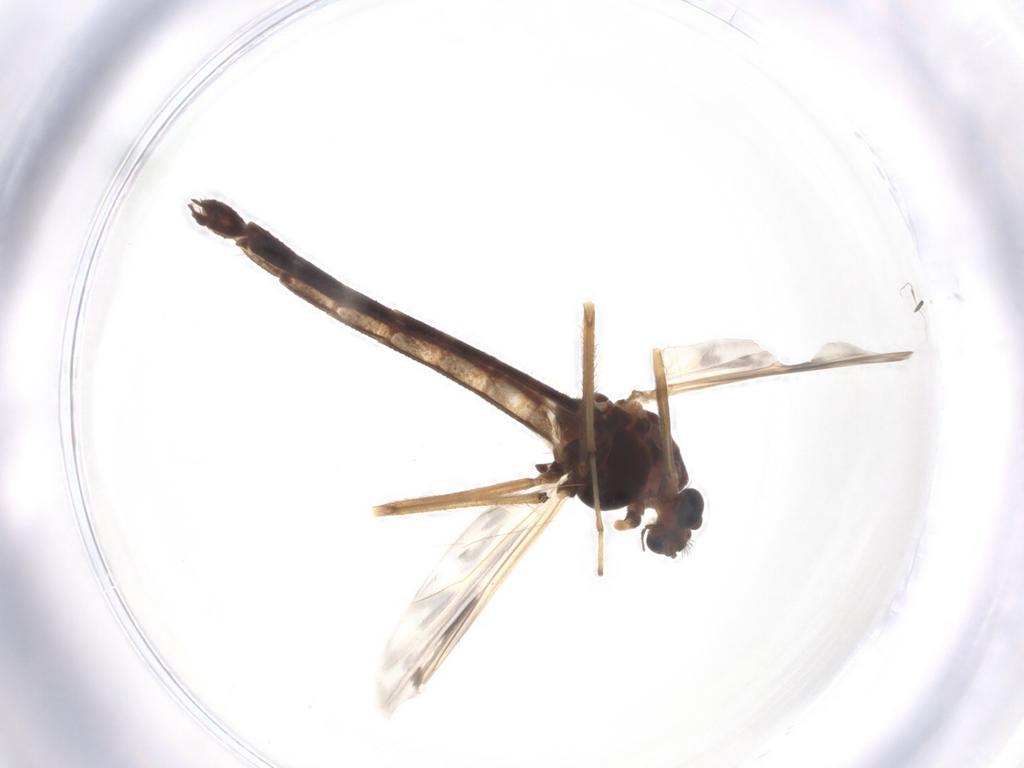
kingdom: Animalia
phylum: Arthropoda
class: Insecta
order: Diptera
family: Chironomidae
